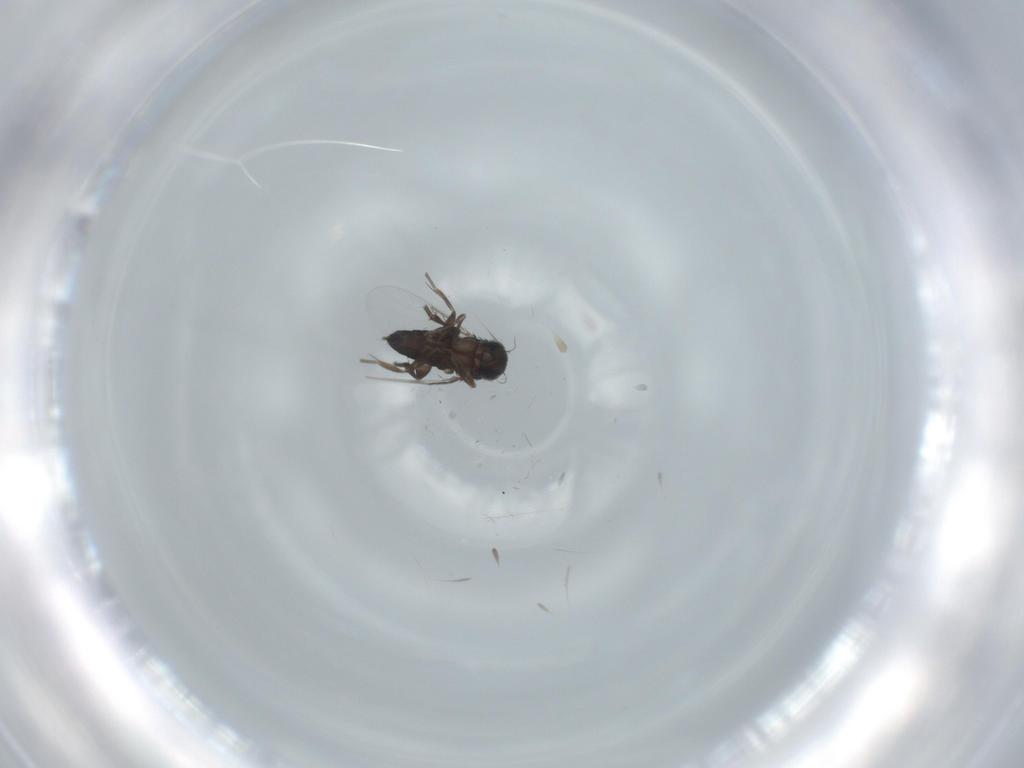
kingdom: Animalia
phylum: Arthropoda
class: Insecta
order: Diptera
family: Phoridae
